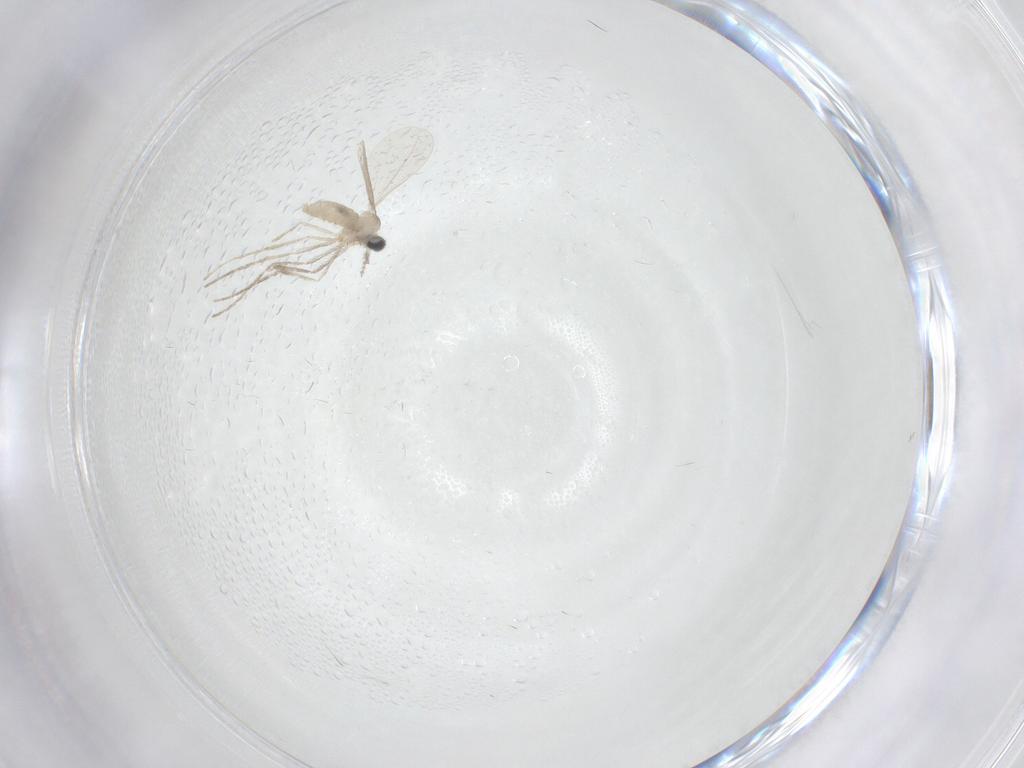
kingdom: Animalia
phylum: Arthropoda
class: Insecta
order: Diptera
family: Cecidomyiidae
